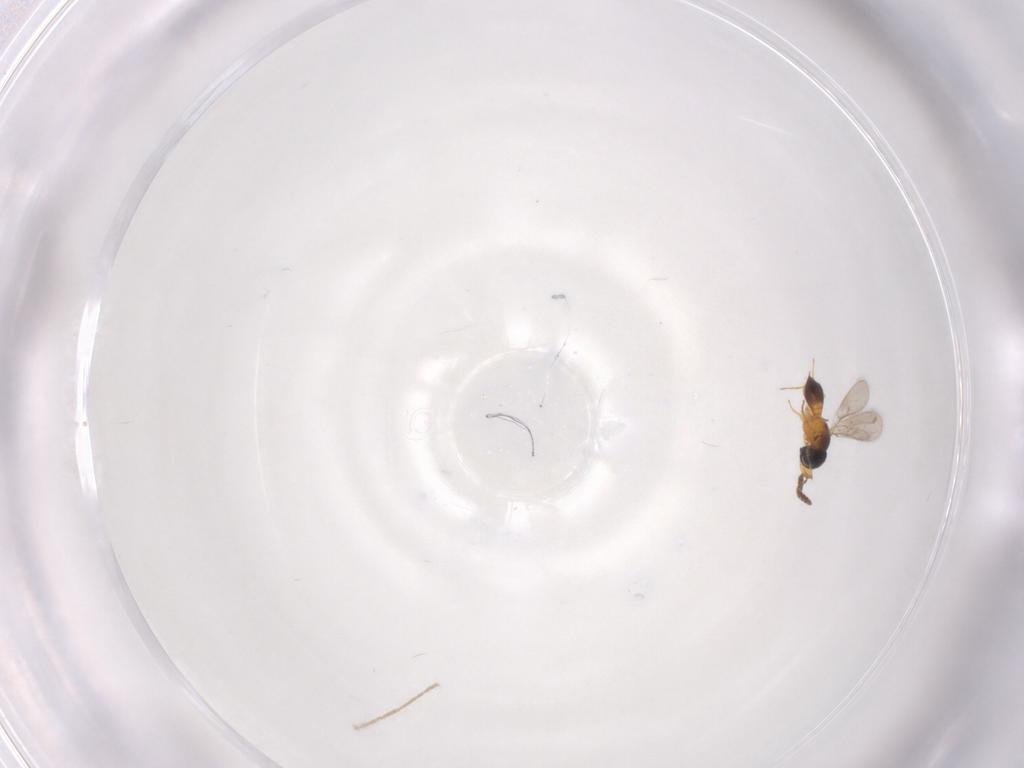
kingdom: Animalia
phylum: Arthropoda
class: Insecta
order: Hymenoptera
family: Scelionidae
